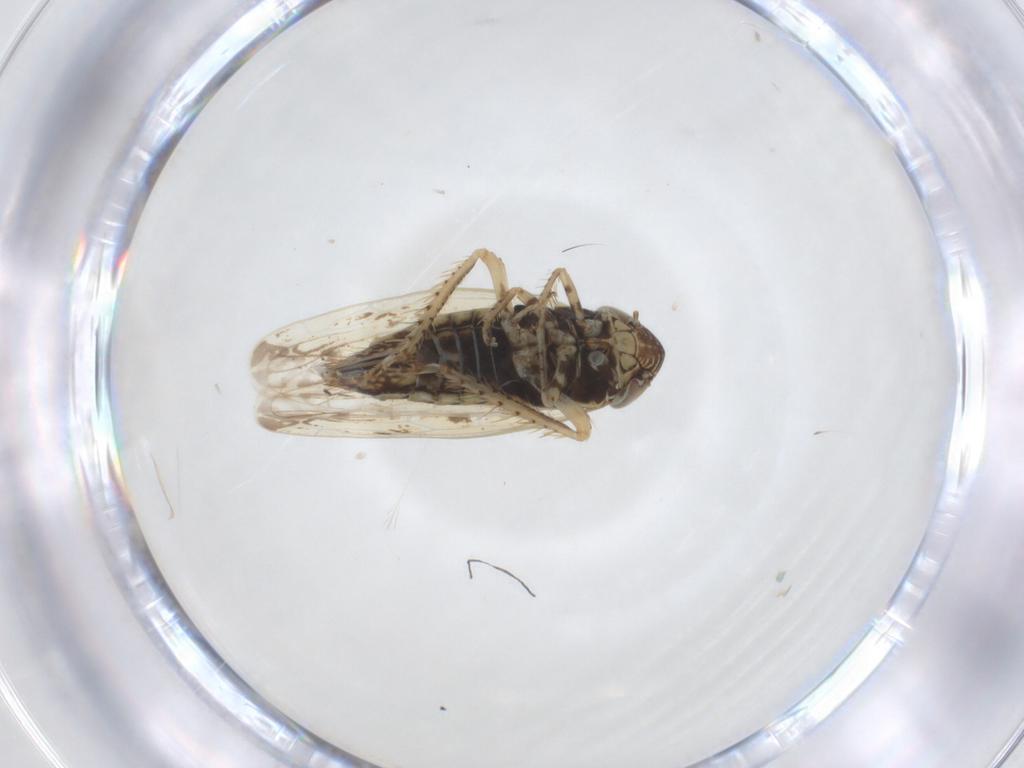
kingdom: Animalia
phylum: Arthropoda
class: Insecta
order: Hemiptera
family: Cicadellidae
